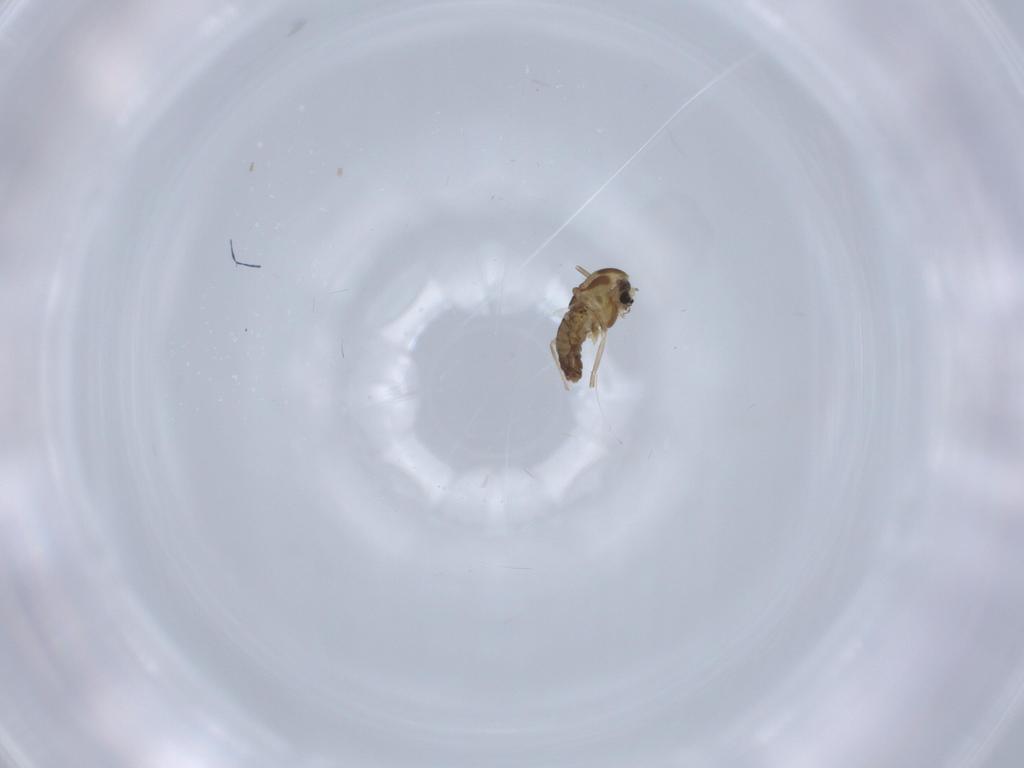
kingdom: Animalia
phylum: Arthropoda
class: Insecta
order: Diptera
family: Chironomidae
